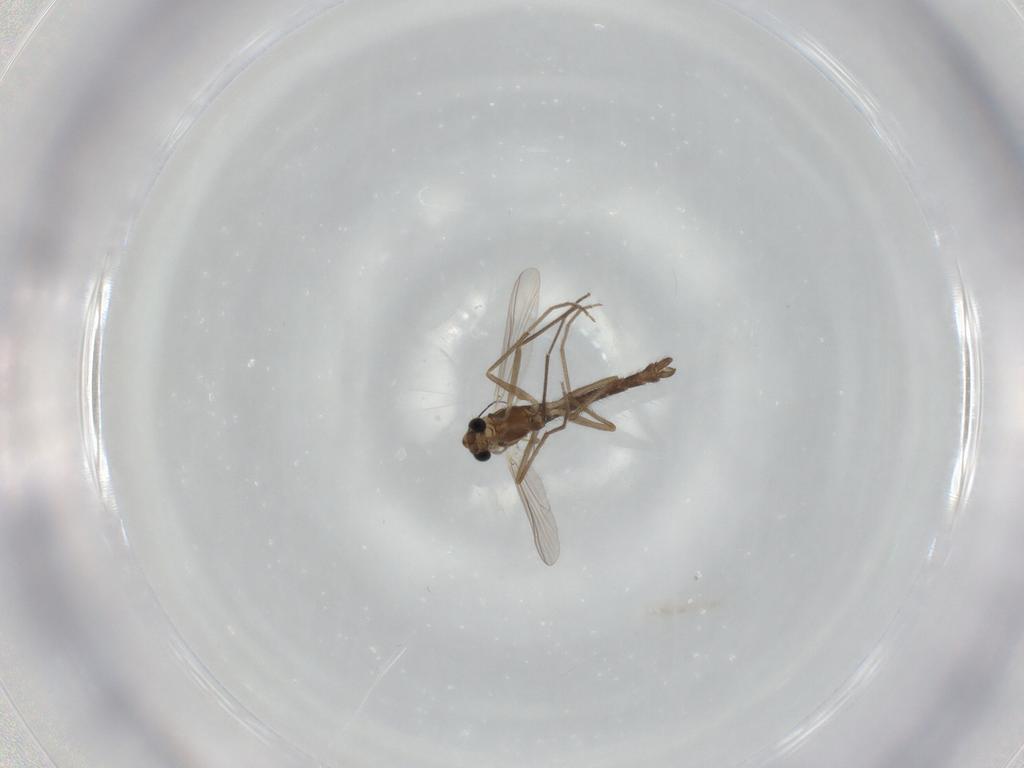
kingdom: Animalia
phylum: Arthropoda
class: Insecta
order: Diptera
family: Chironomidae
